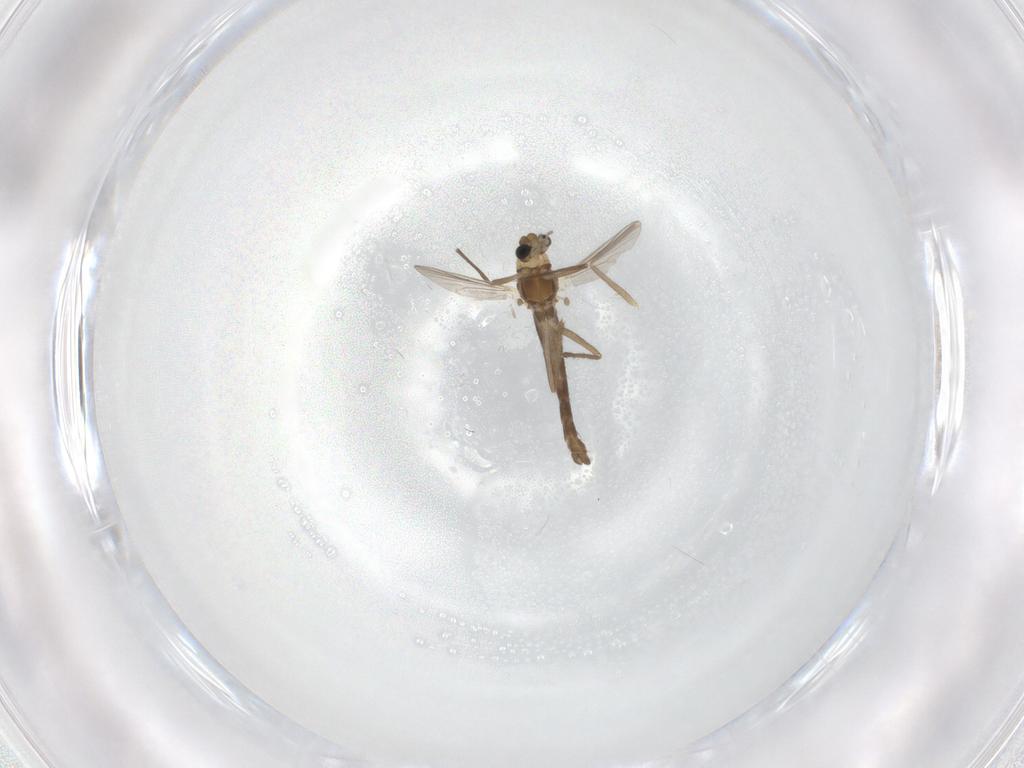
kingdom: Animalia
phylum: Arthropoda
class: Insecta
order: Diptera
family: Chironomidae
